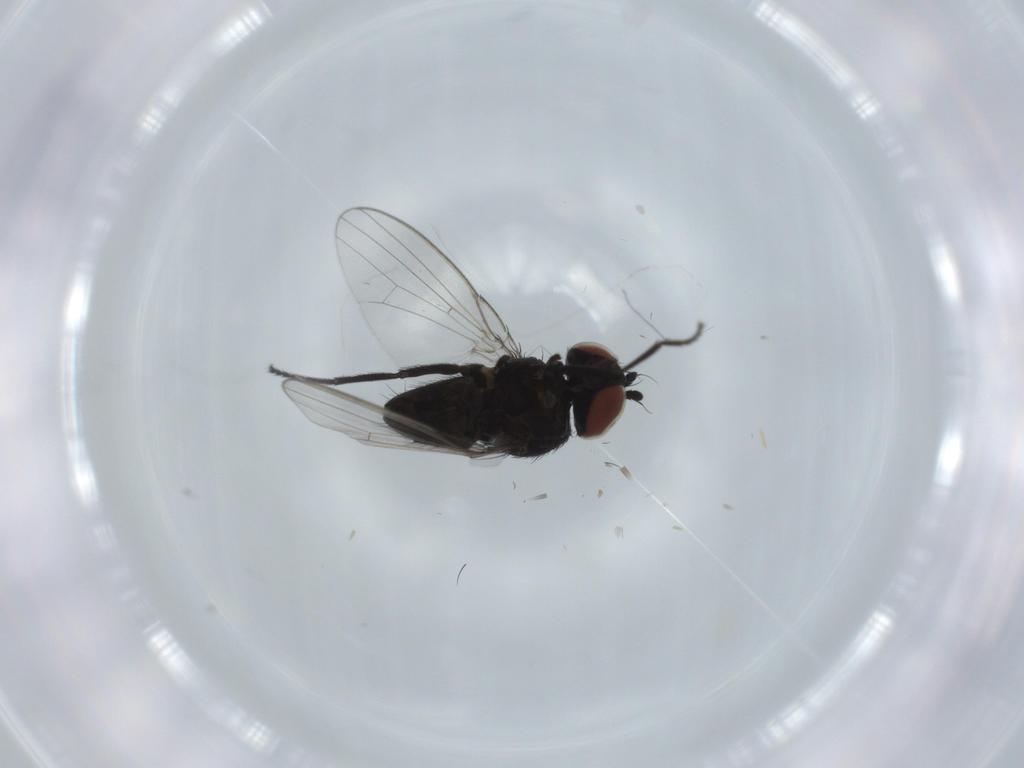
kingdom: Animalia
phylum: Arthropoda
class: Insecta
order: Diptera
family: Milichiidae
